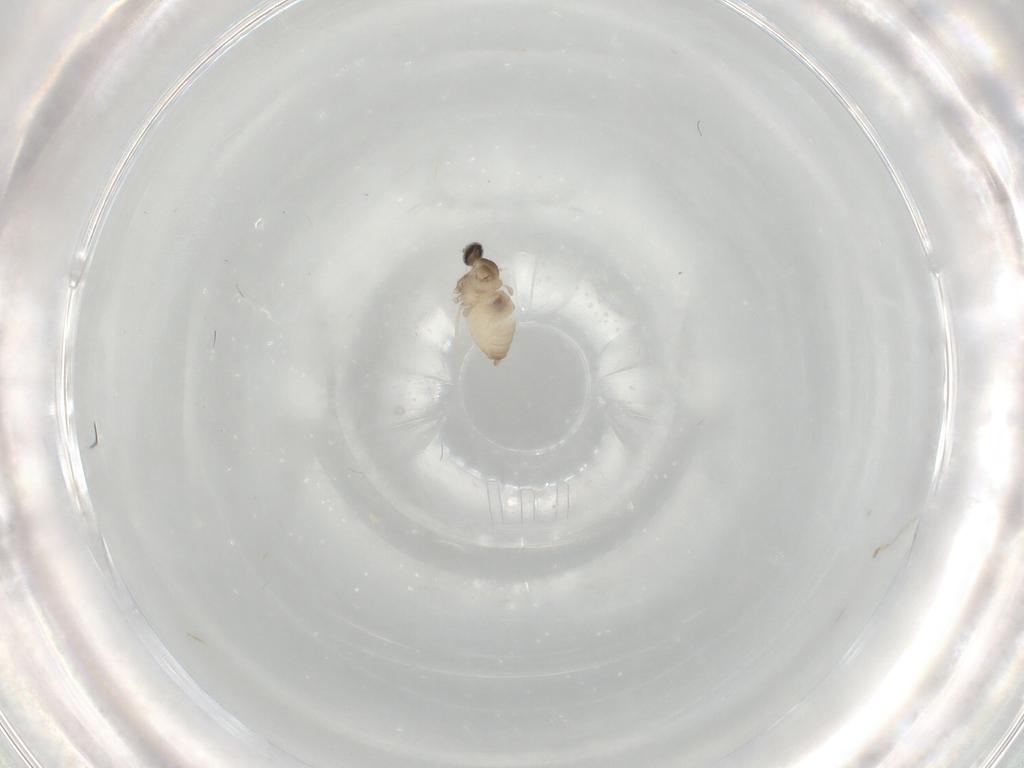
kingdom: Animalia
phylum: Arthropoda
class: Insecta
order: Diptera
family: Cecidomyiidae
